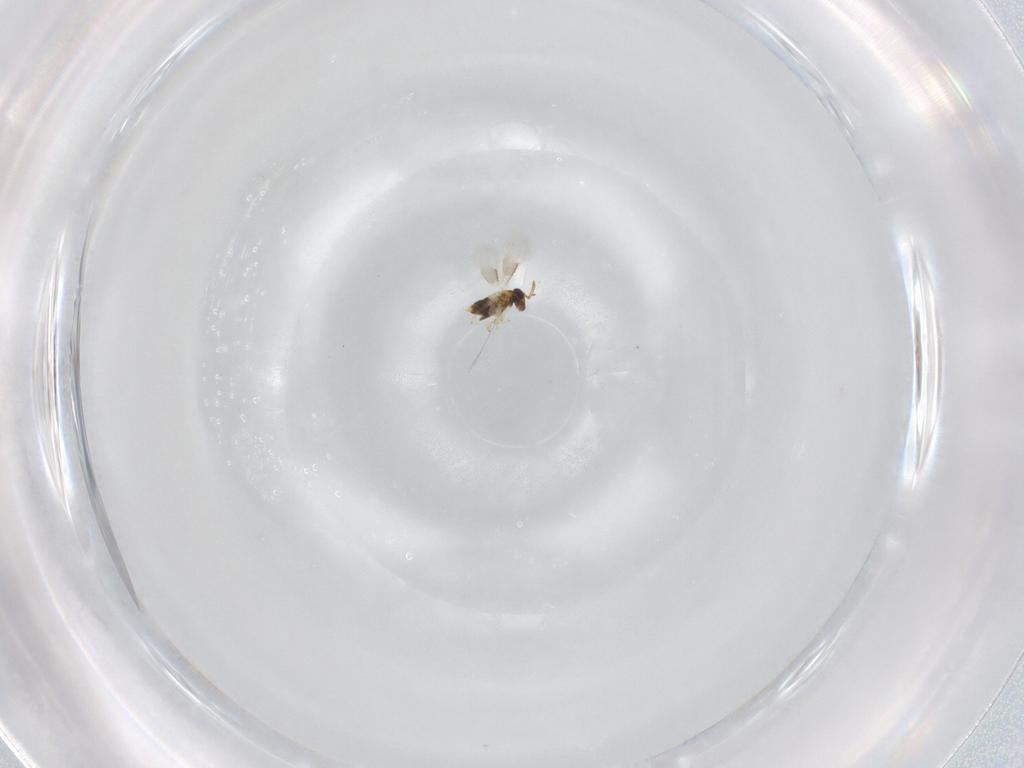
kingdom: Animalia
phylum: Arthropoda
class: Insecta
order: Hymenoptera
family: Aphelinidae
